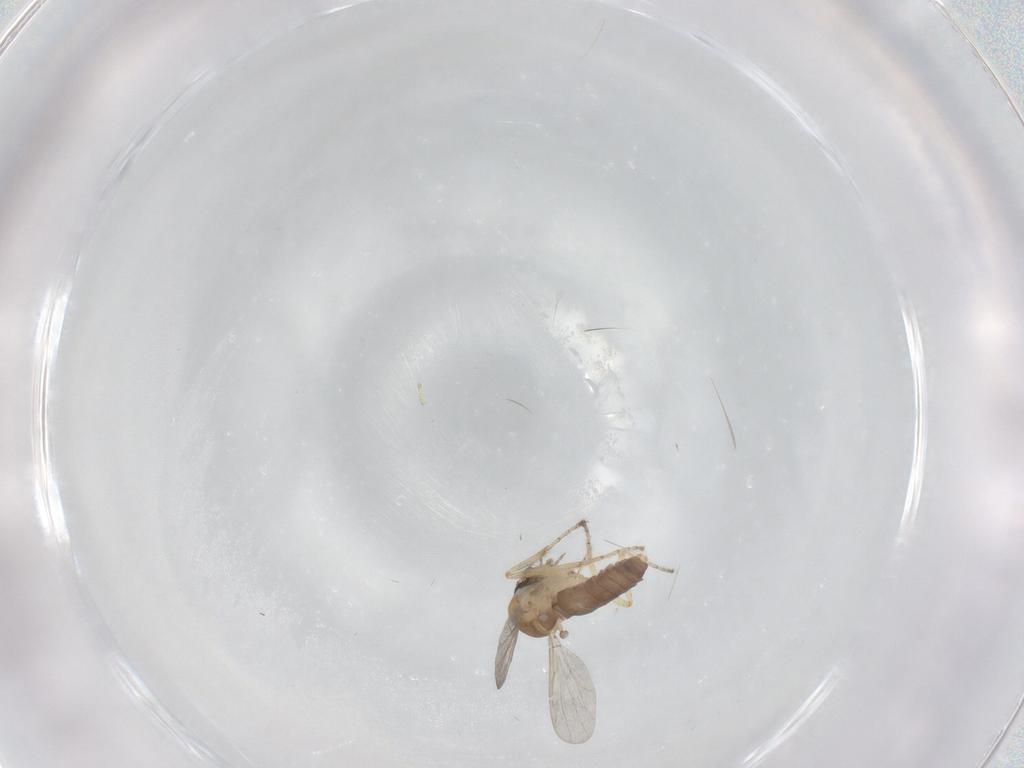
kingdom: Animalia
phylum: Arthropoda
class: Insecta
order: Diptera
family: Ceratopogonidae
